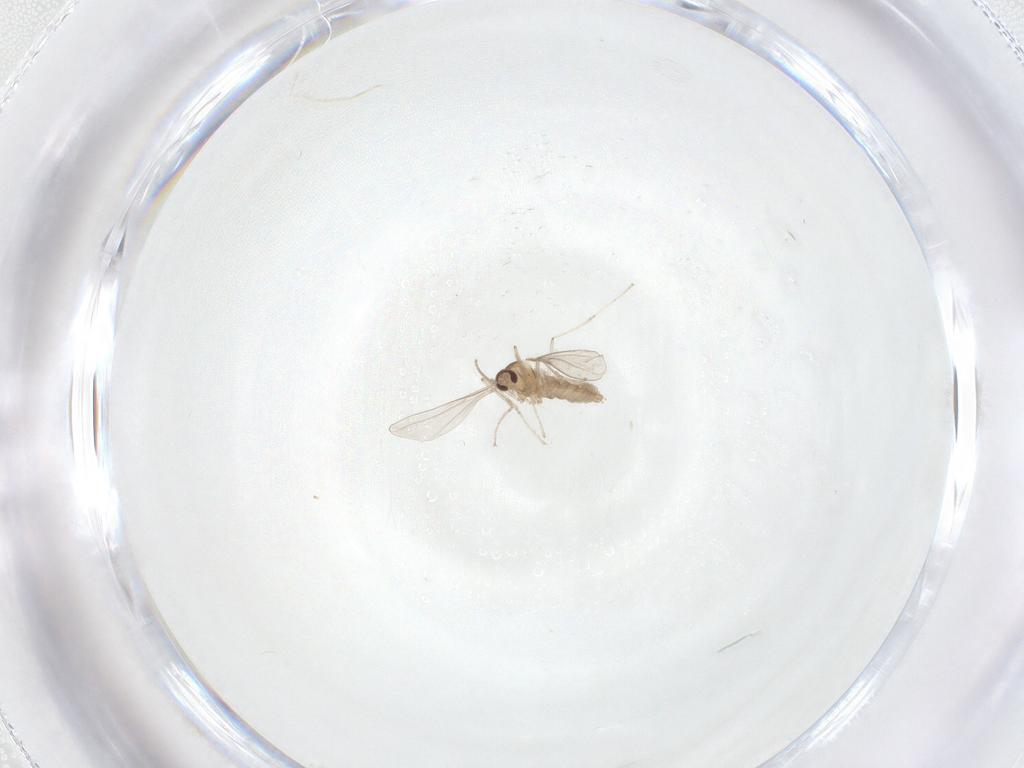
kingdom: Animalia
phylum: Arthropoda
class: Insecta
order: Diptera
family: Cecidomyiidae
